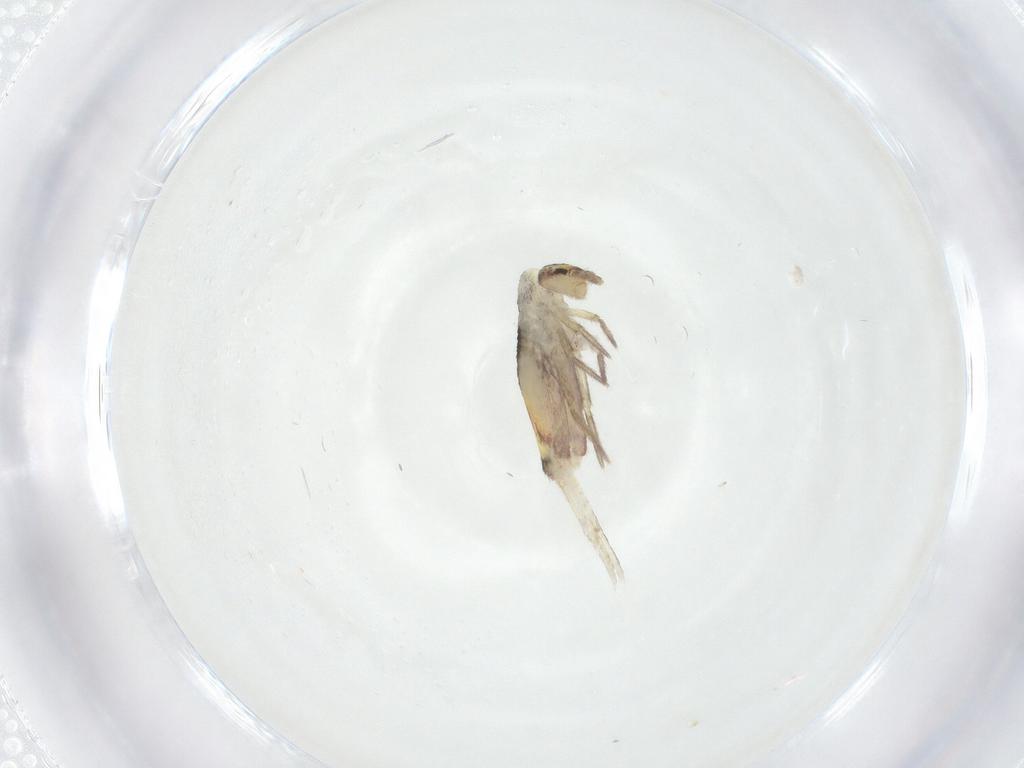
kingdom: Animalia
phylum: Arthropoda
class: Collembola
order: Entomobryomorpha
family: Entomobryidae
